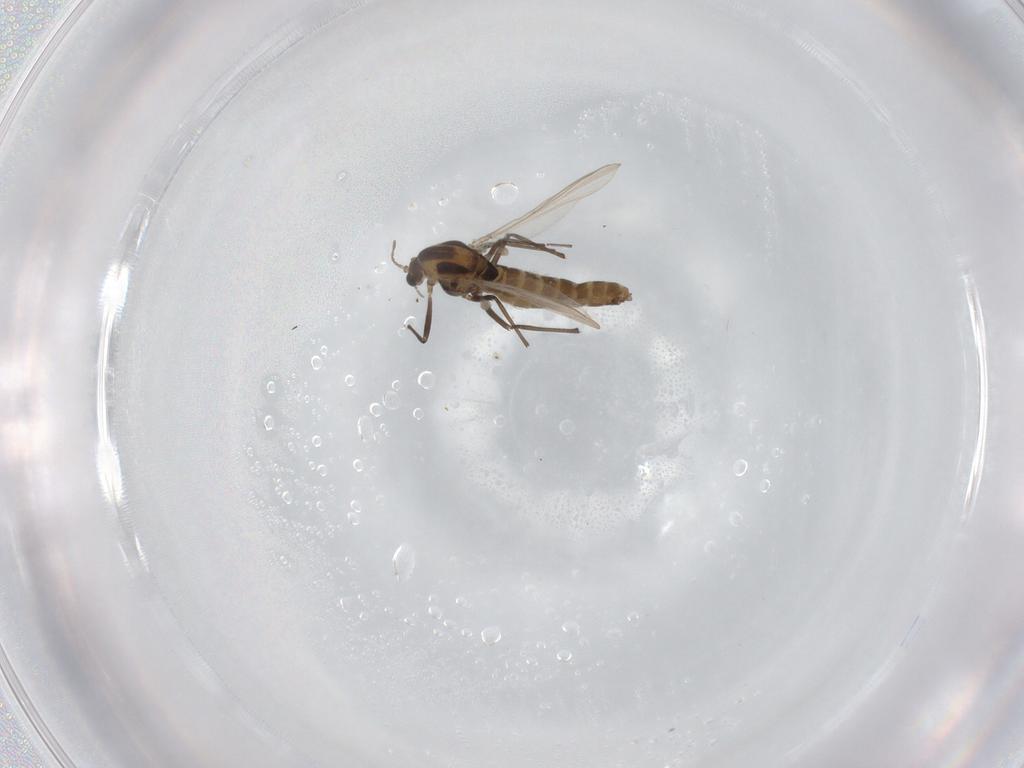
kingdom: Animalia
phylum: Arthropoda
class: Insecta
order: Diptera
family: Chironomidae
